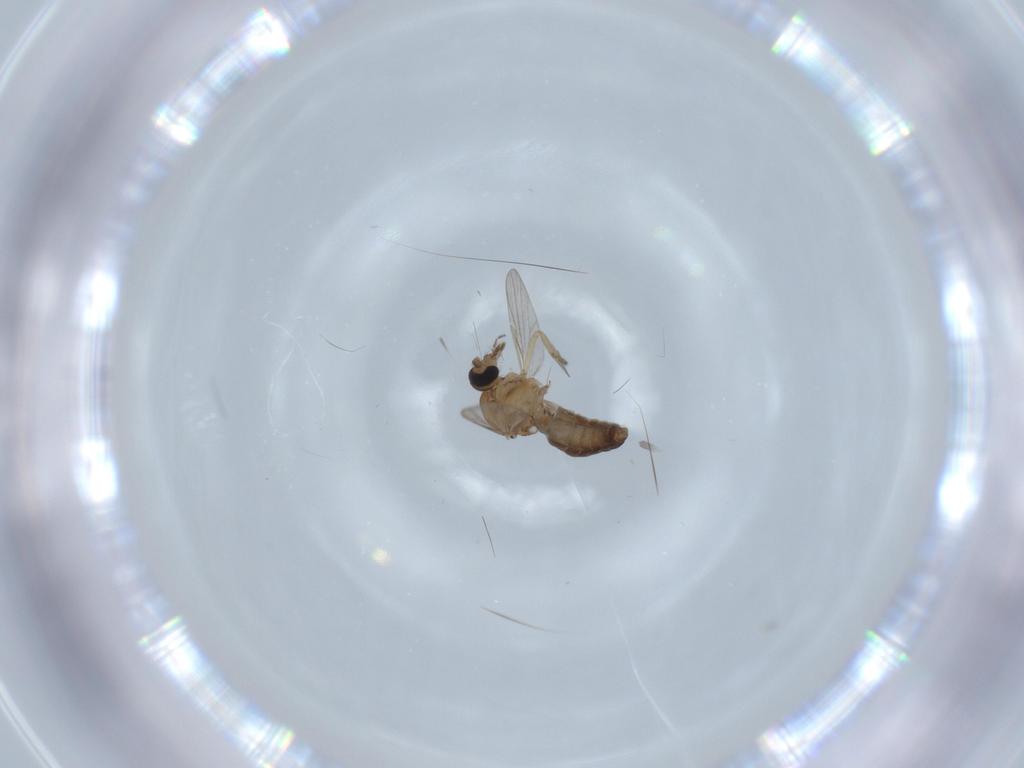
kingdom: Animalia
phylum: Arthropoda
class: Insecta
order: Diptera
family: Ceratopogonidae
